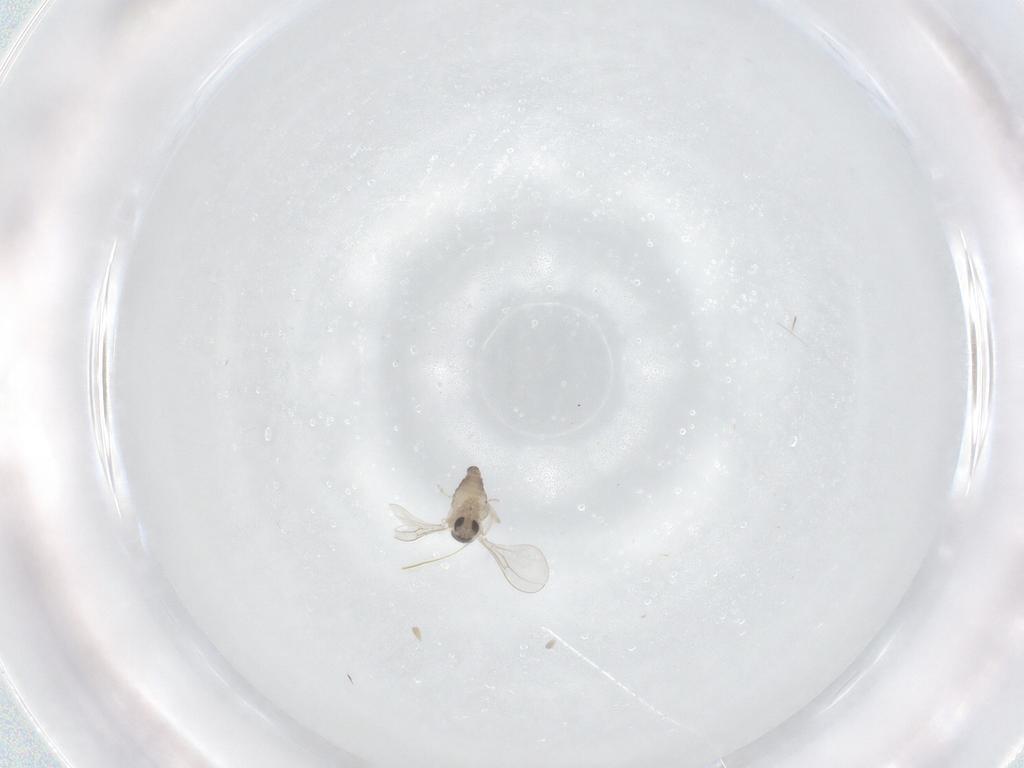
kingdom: Animalia
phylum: Arthropoda
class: Insecta
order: Diptera
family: Cecidomyiidae
